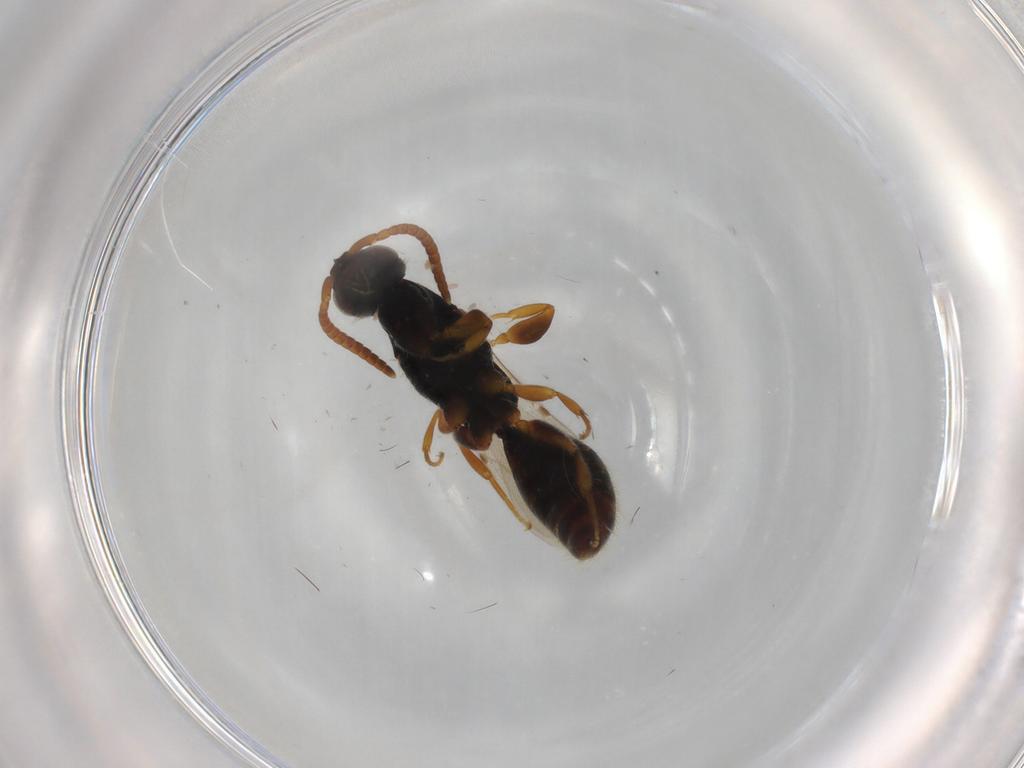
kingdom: Animalia
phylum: Arthropoda
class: Insecta
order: Hymenoptera
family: Bethylidae
